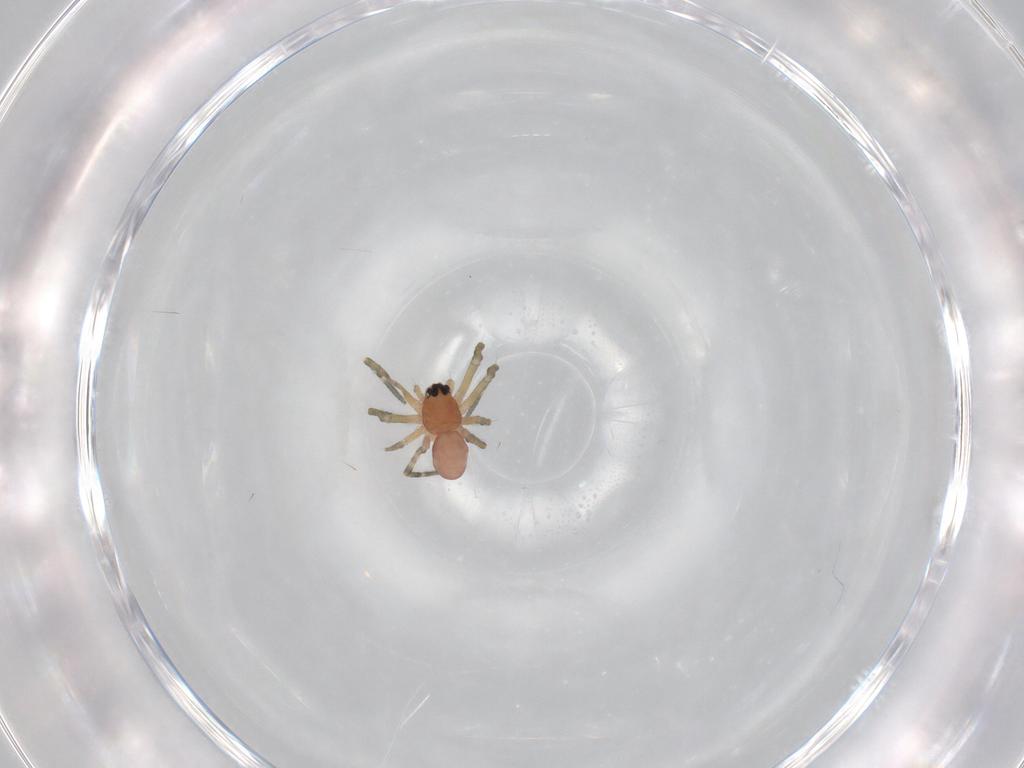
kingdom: Animalia
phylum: Arthropoda
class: Arachnida
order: Araneae
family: Linyphiidae
